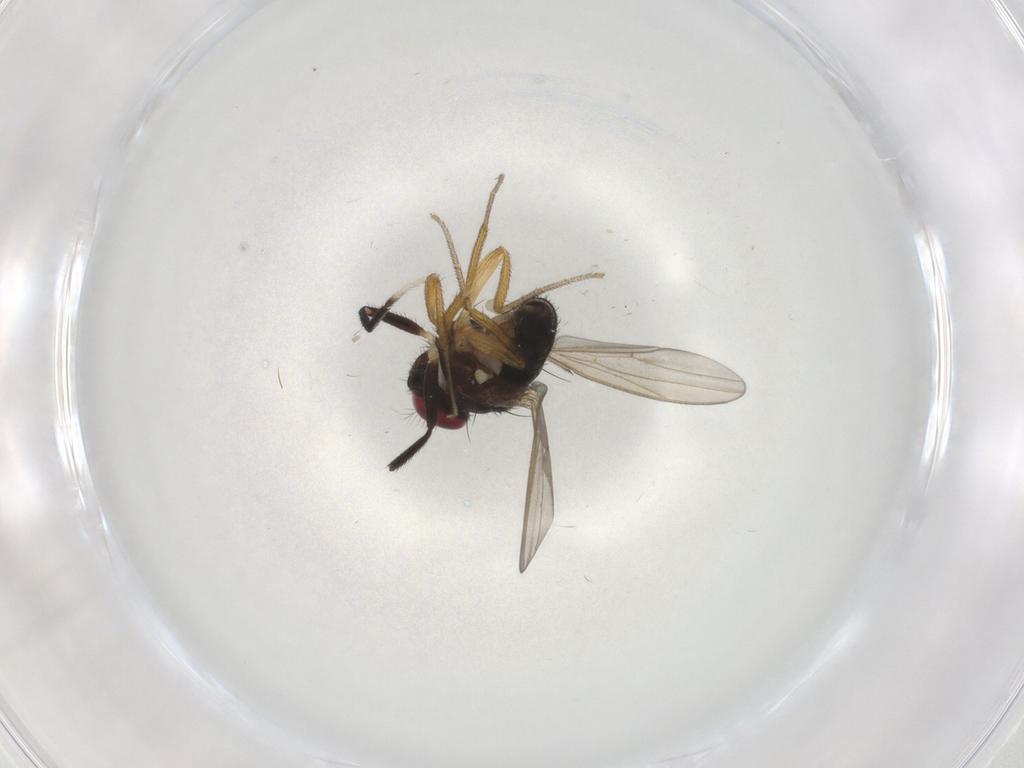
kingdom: Animalia
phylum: Arthropoda
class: Insecta
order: Diptera
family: Drosophilidae
